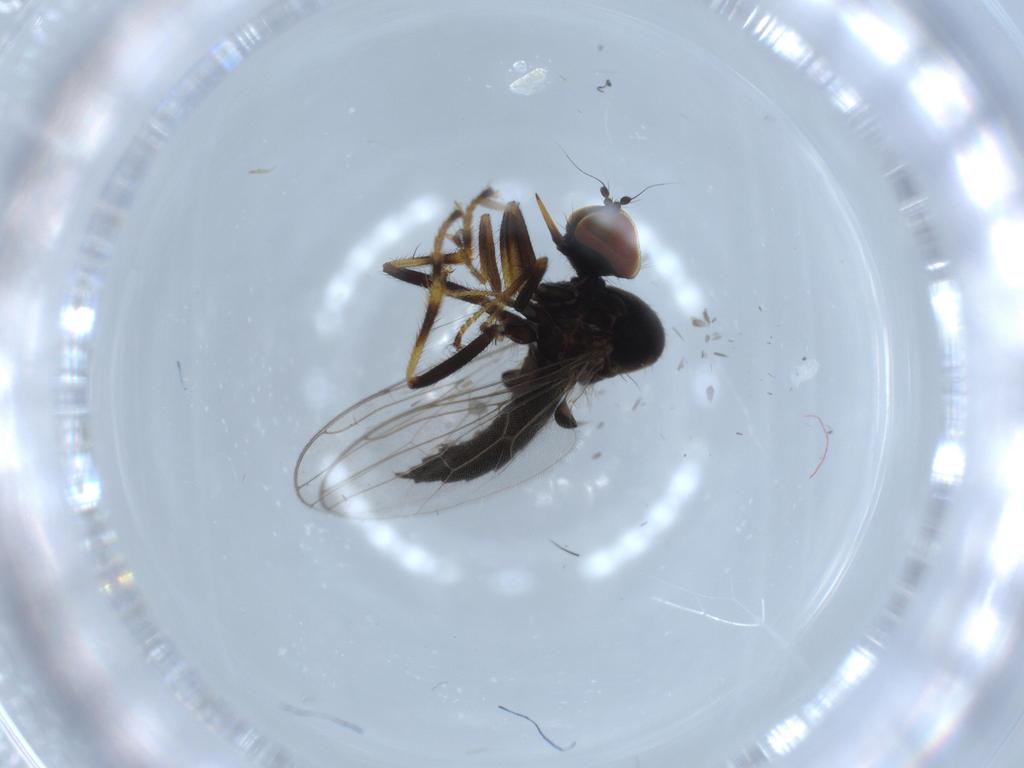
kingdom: Animalia
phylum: Arthropoda
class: Insecta
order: Diptera
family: Hybotidae
